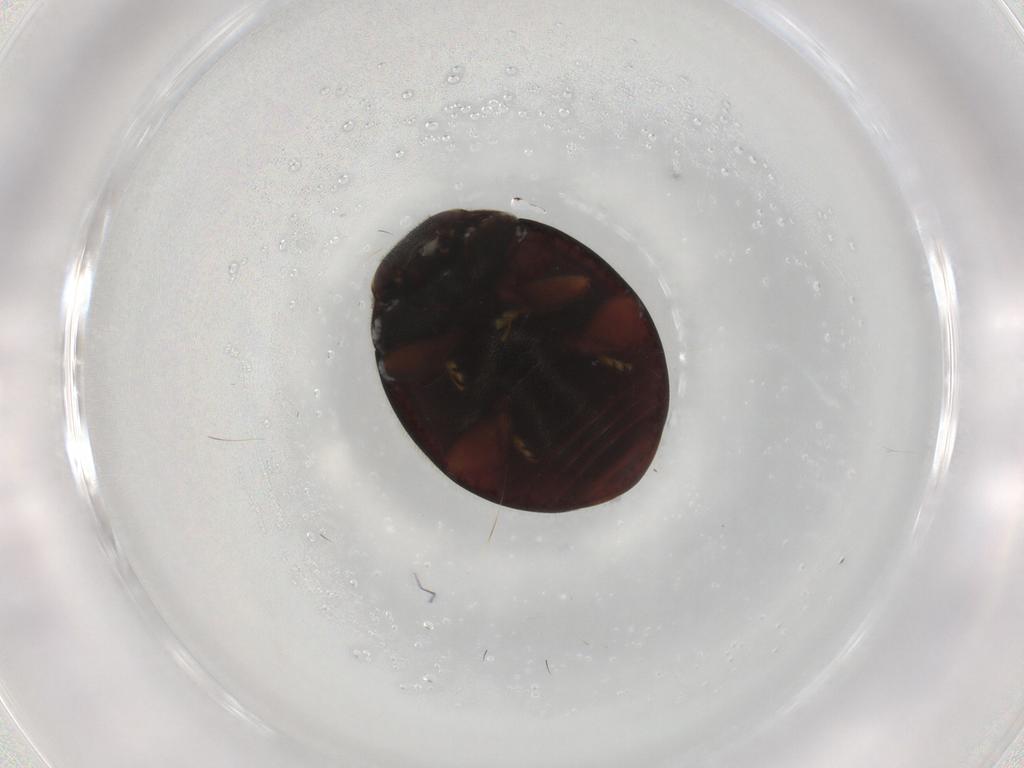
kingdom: Animalia
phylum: Arthropoda
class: Insecta
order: Coleoptera
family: Coccinellidae
